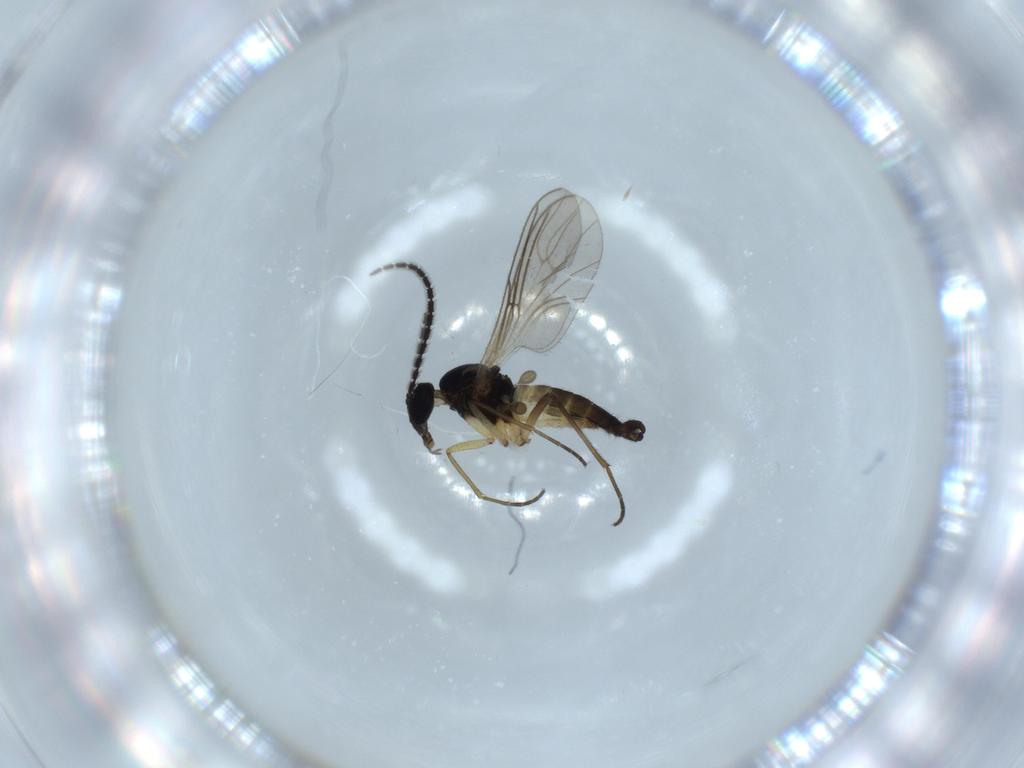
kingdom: Animalia
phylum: Arthropoda
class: Insecta
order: Diptera
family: Sciaridae
